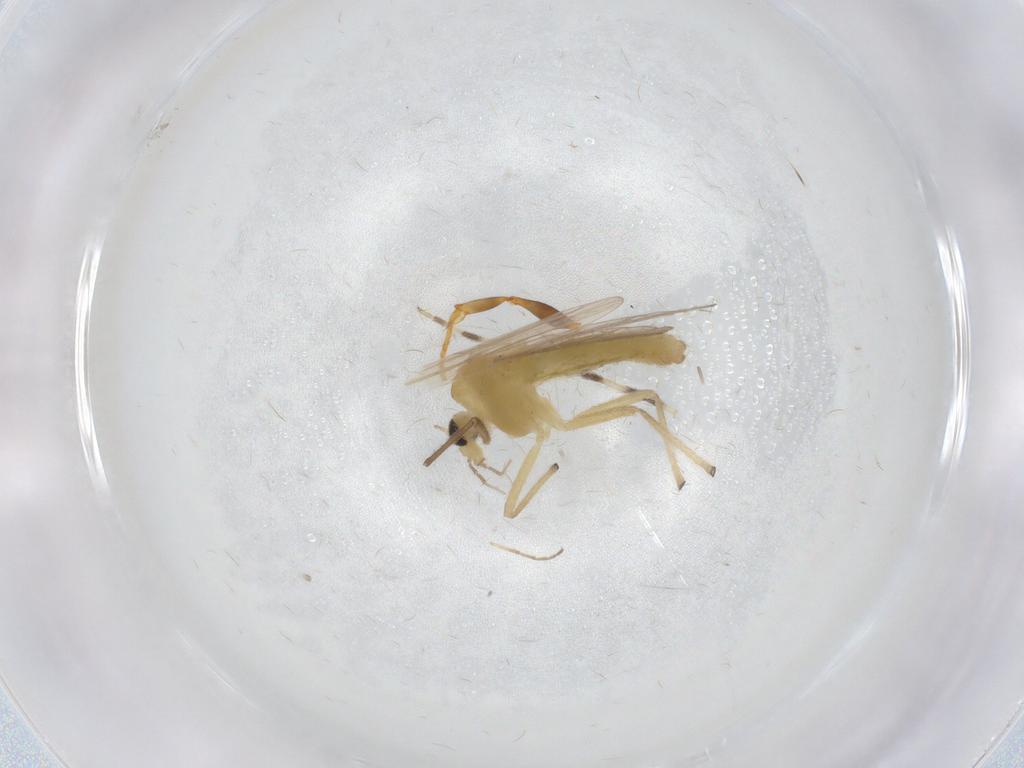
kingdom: Animalia
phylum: Arthropoda
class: Insecta
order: Diptera
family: Chironomidae
